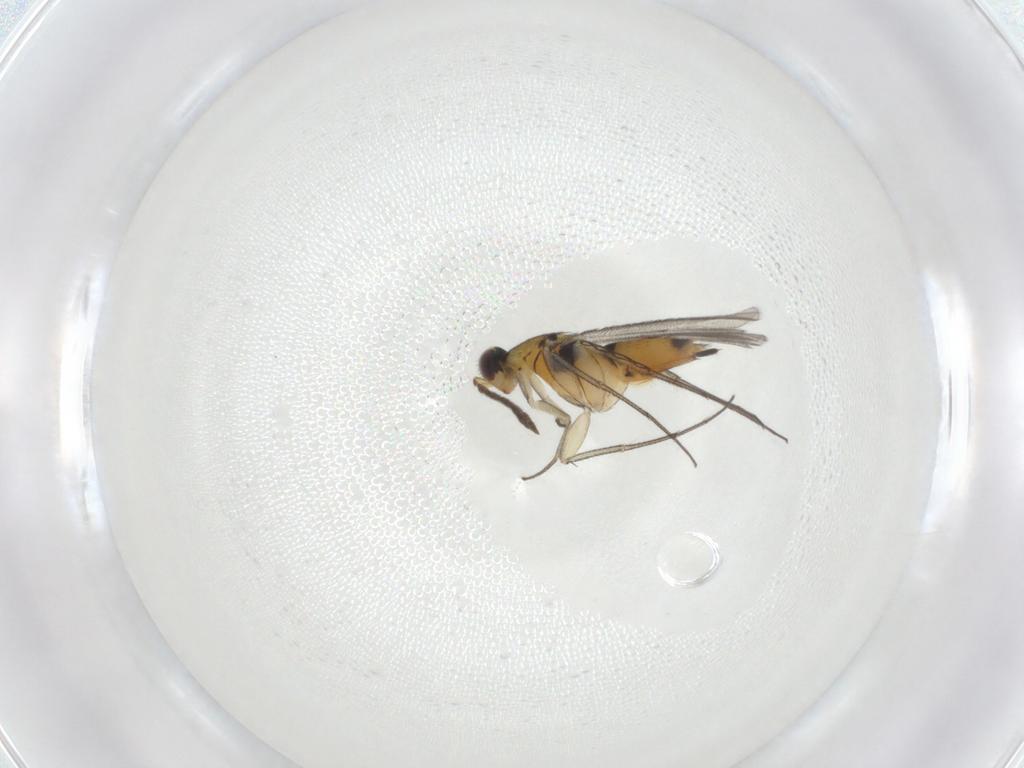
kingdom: Animalia
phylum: Arthropoda
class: Insecta
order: Hymenoptera
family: Eulophidae
